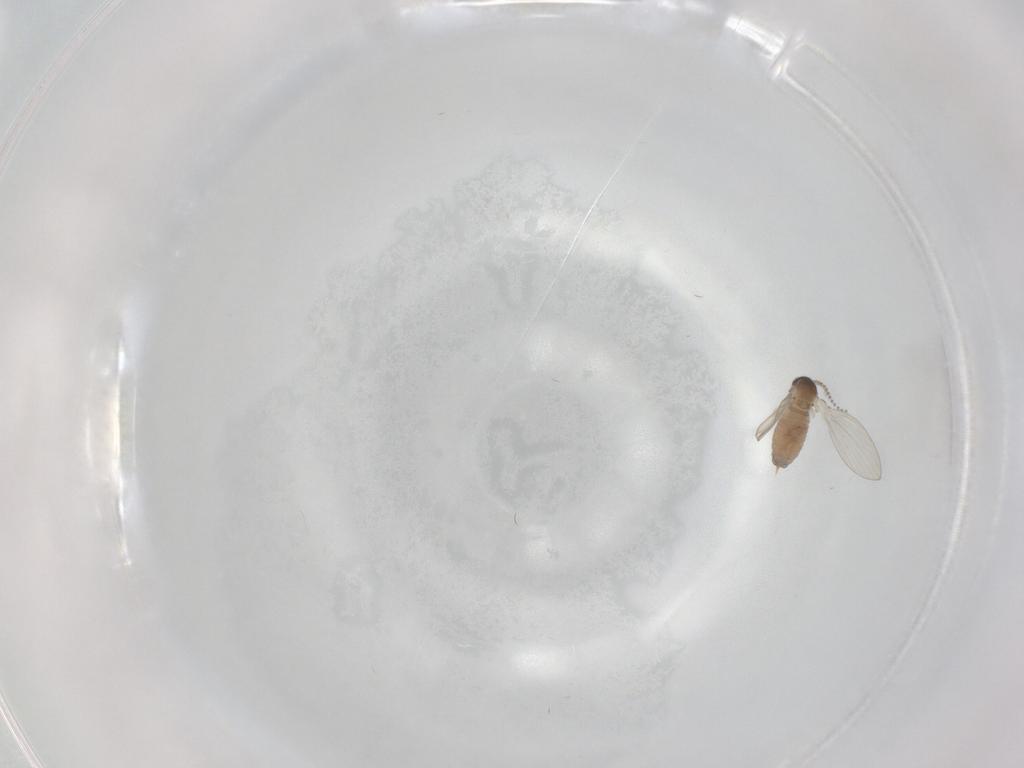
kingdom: Animalia
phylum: Arthropoda
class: Insecta
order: Diptera
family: Psychodidae
